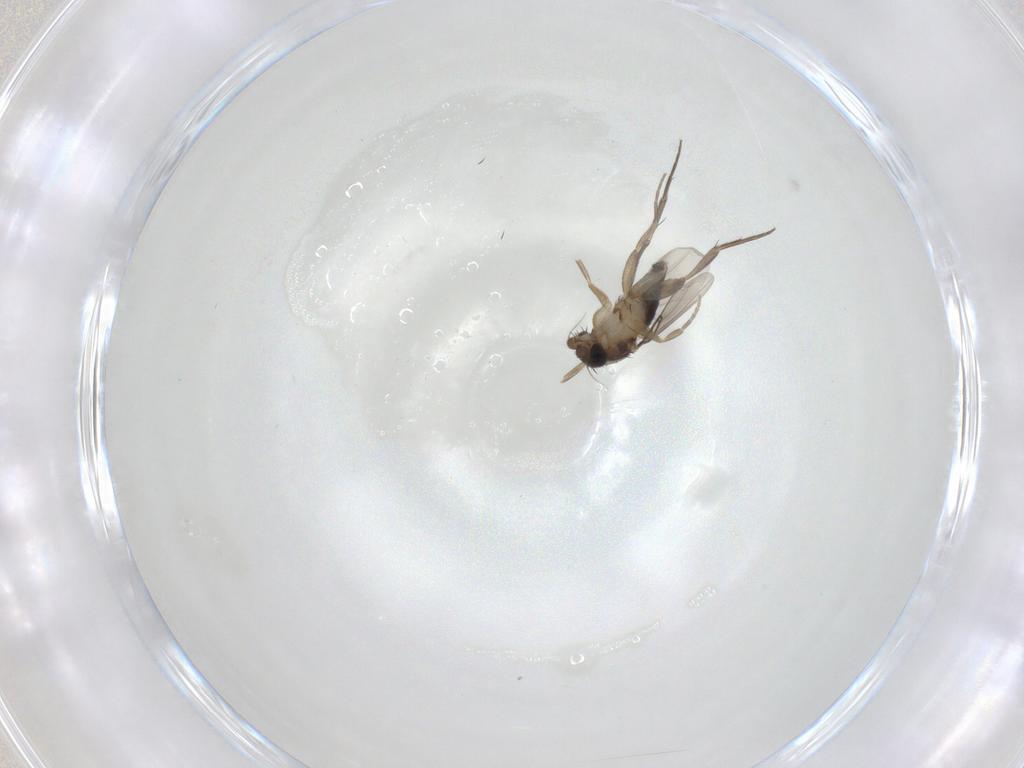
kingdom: Animalia
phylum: Arthropoda
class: Insecta
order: Diptera
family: Phoridae
